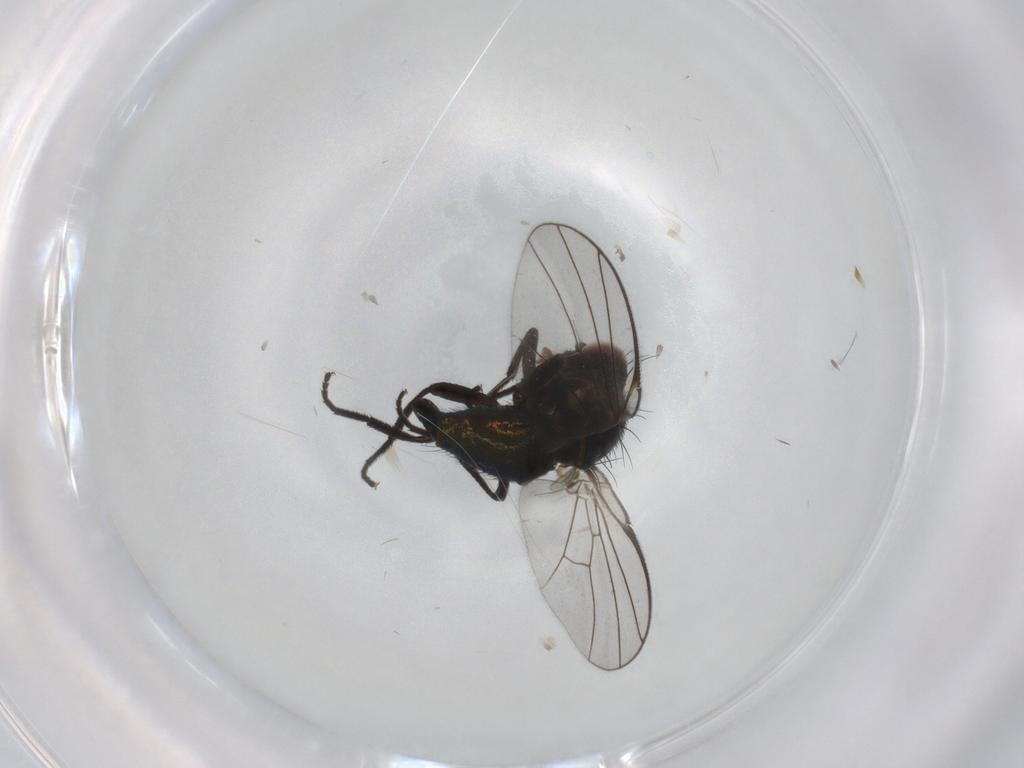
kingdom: Animalia
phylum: Arthropoda
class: Insecta
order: Diptera
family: Agromyzidae
